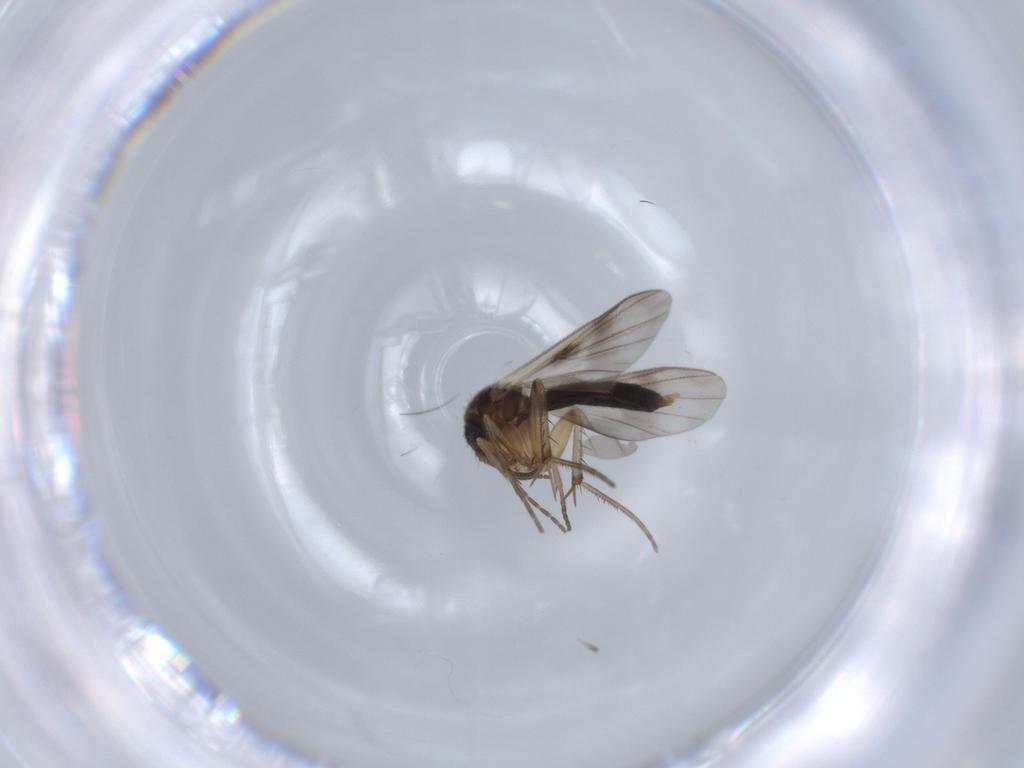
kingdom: Animalia
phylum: Arthropoda
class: Insecta
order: Diptera
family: Sciaridae
